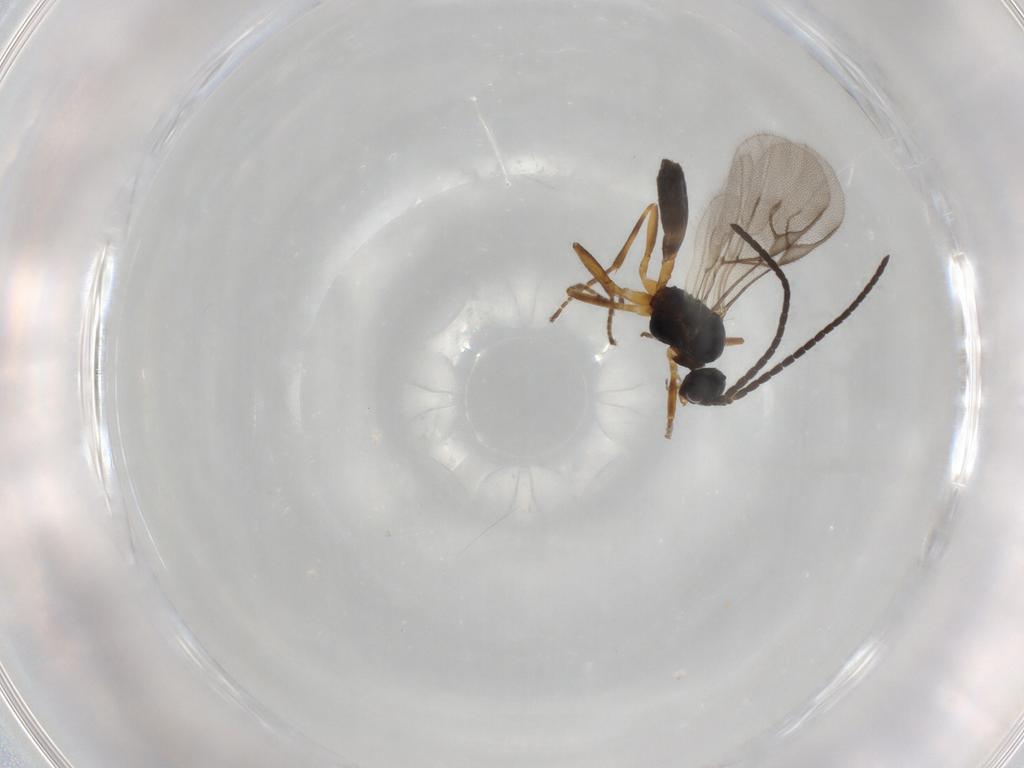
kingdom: Animalia
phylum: Arthropoda
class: Insecta
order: Hymenoptera
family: Braconidae
